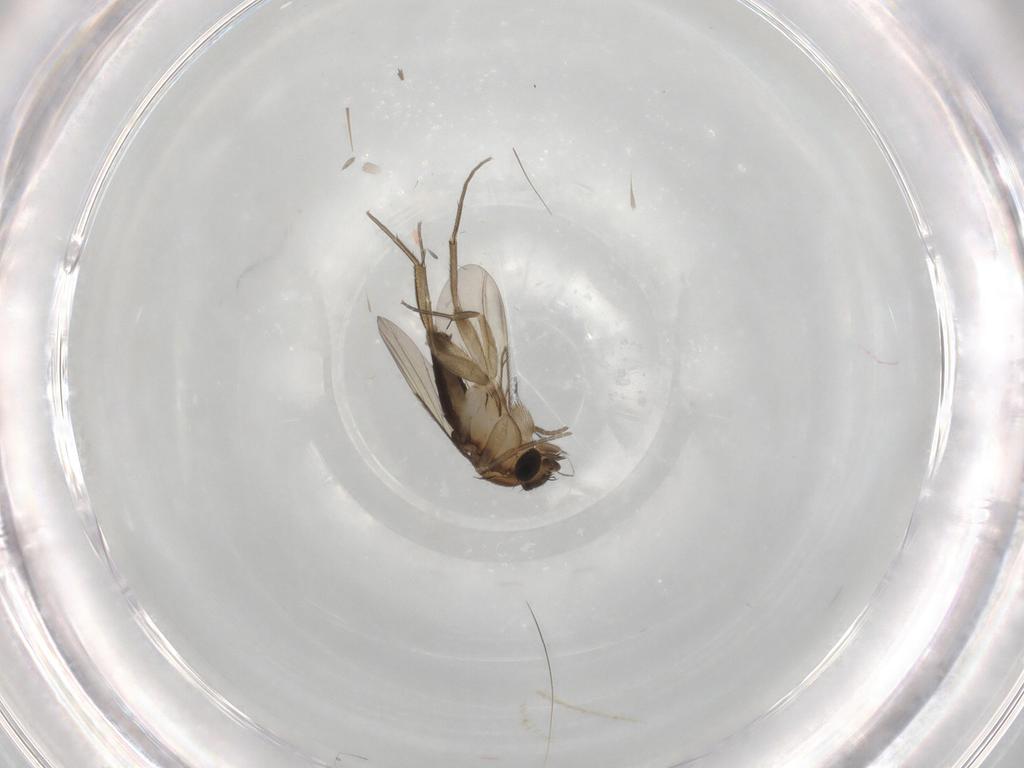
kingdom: Animalia
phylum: Arthropoda
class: Insecta
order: Diptera
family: Phoridae
